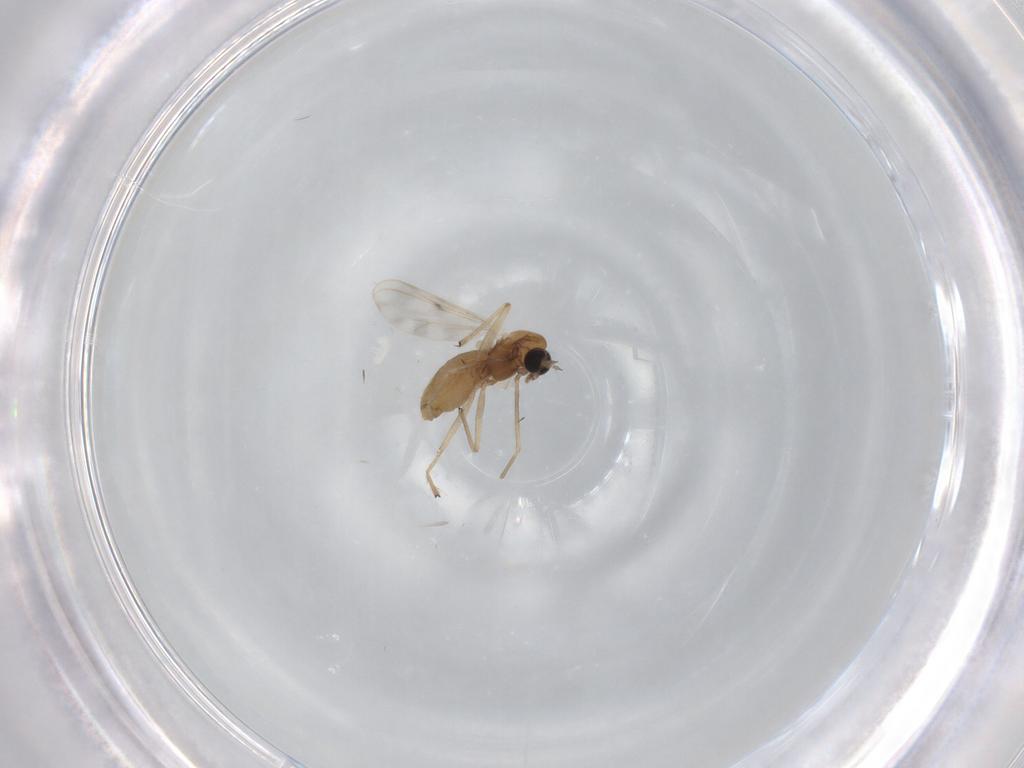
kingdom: Animalia
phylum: Arthropoda
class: Insecta
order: Diptera
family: Chironomidae
